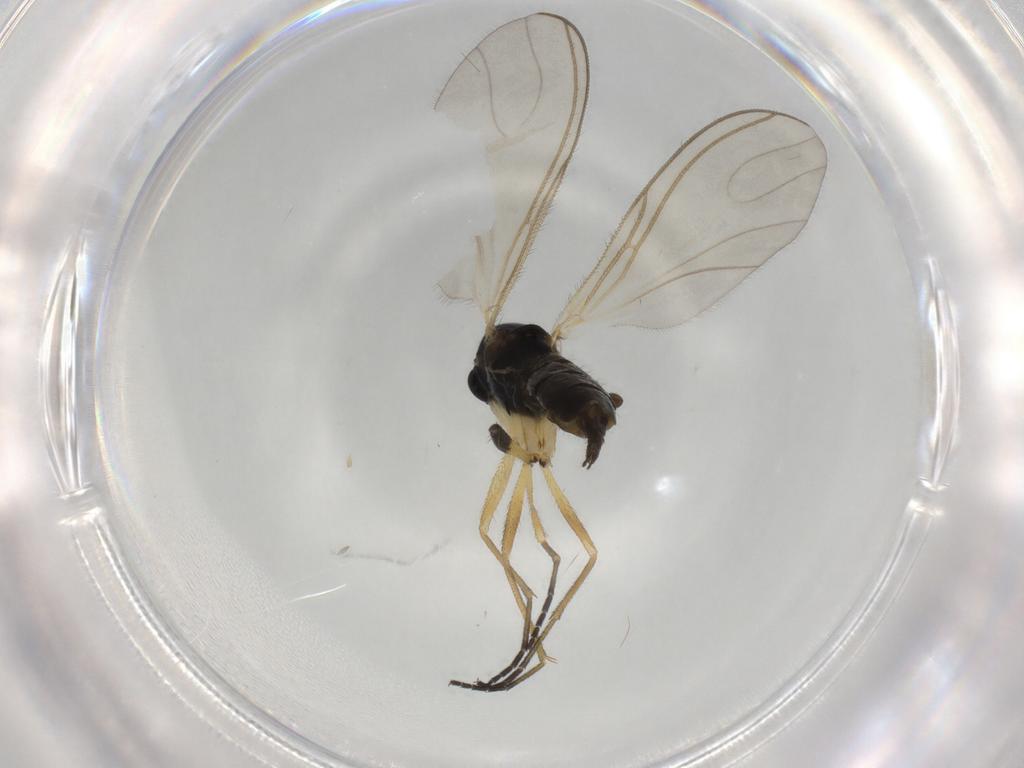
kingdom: Animalia
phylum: Arthropoda
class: Insecta
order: Diptera
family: Sciaridae
